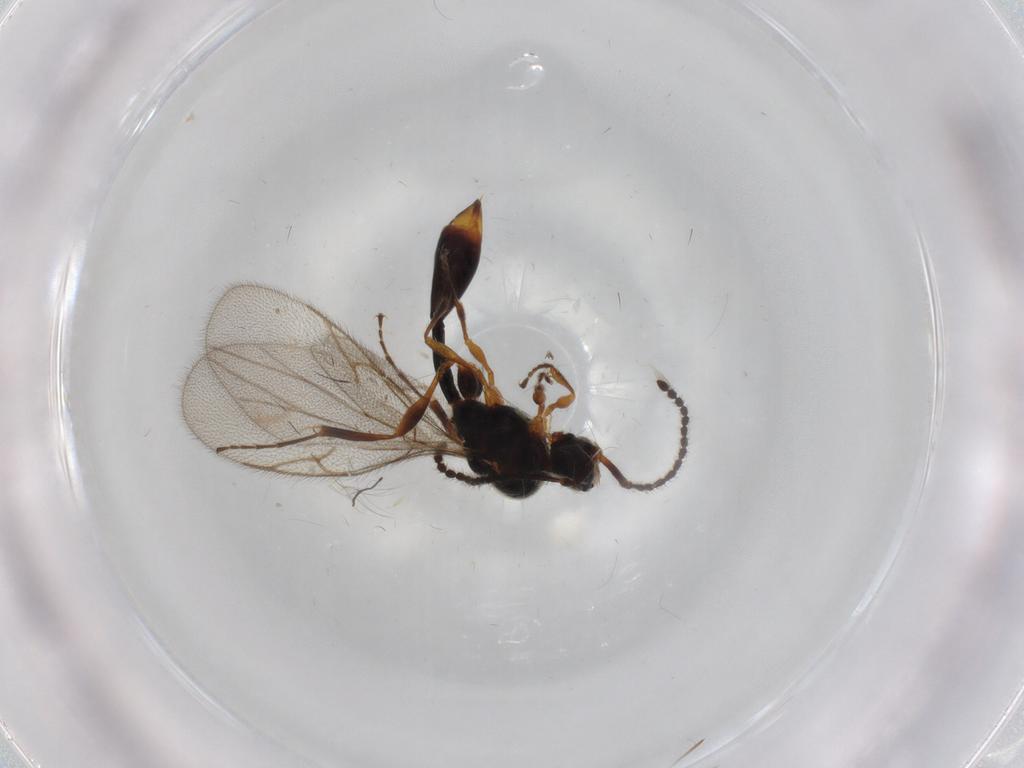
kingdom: Animalia
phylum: Arthropoda
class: Insecta
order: Hymenoptera
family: Diapriidae
